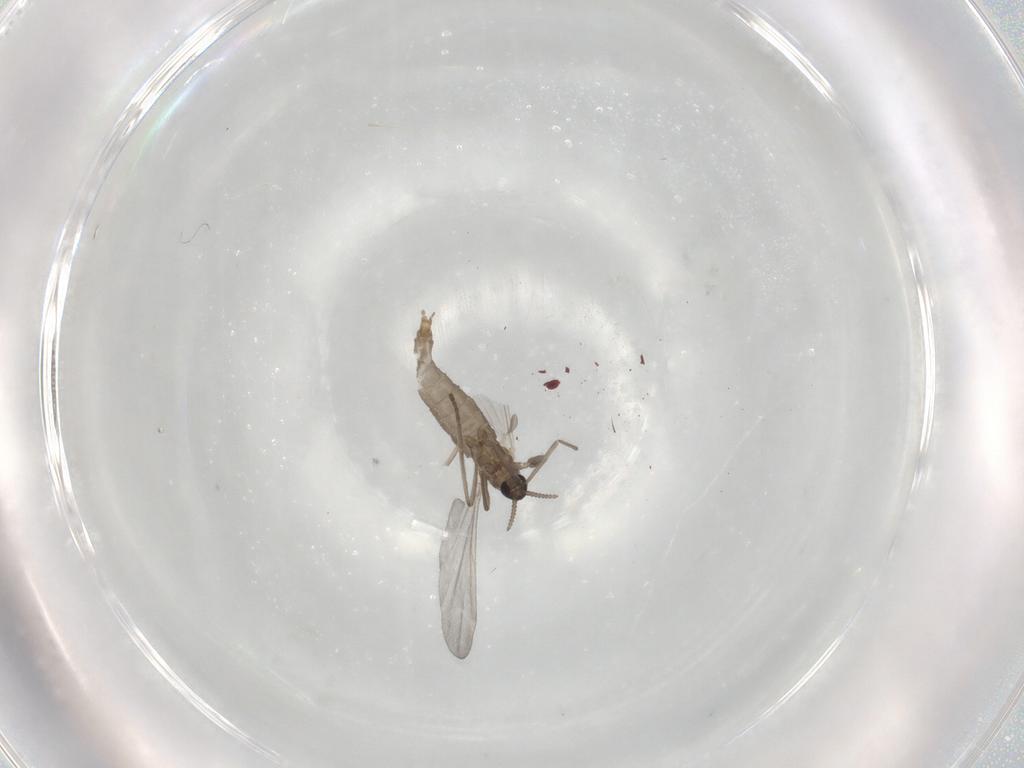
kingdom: Animalia
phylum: Arthropoda
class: Insecta
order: Diptera
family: Cecidomyiidae
